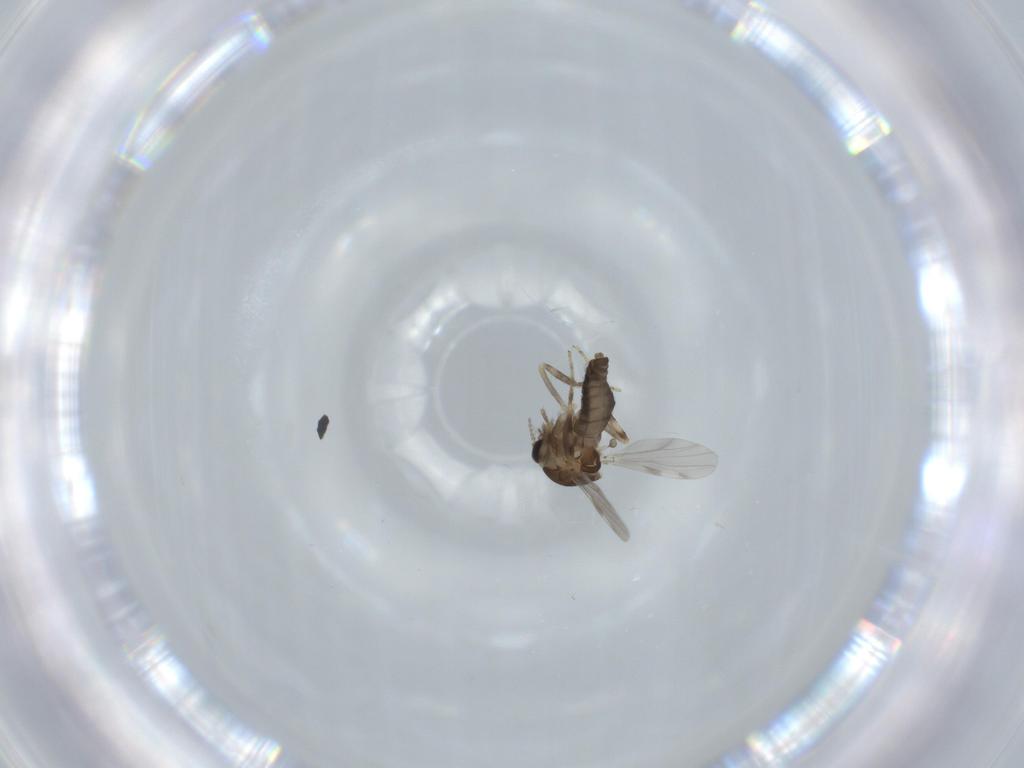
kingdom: Animalia
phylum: Arthropoda
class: Insecta
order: Diptera
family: Ceratopogonidae
